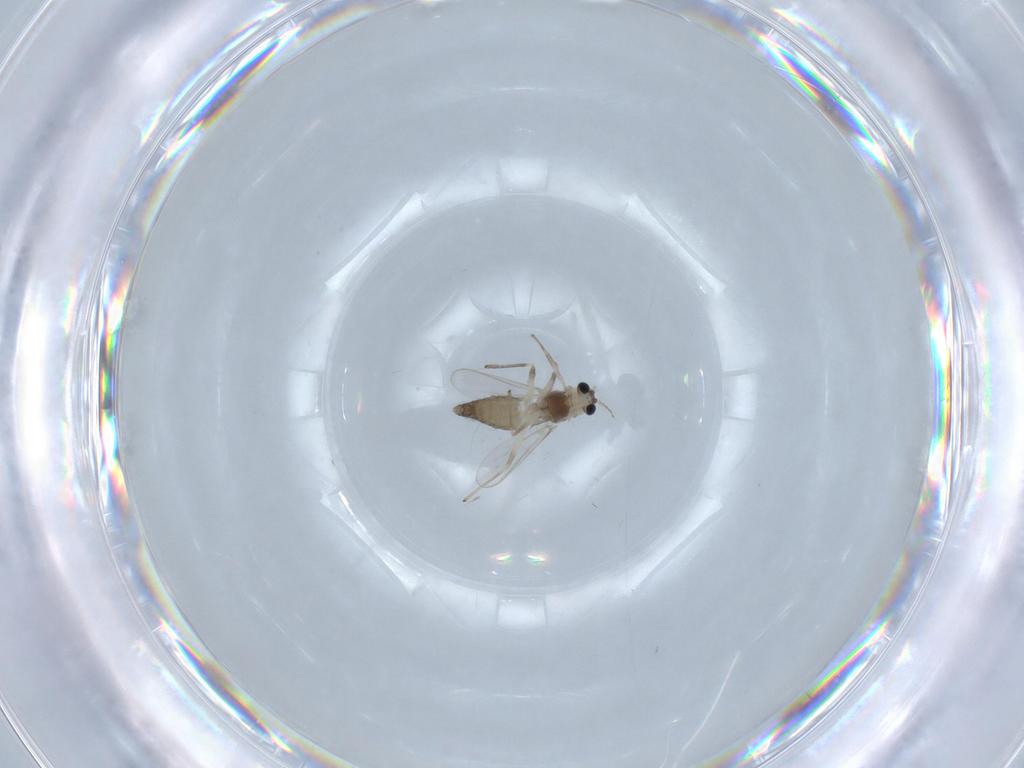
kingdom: Animalia
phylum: Arthropoda
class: Insecta
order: Diptera
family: Chironomidae
